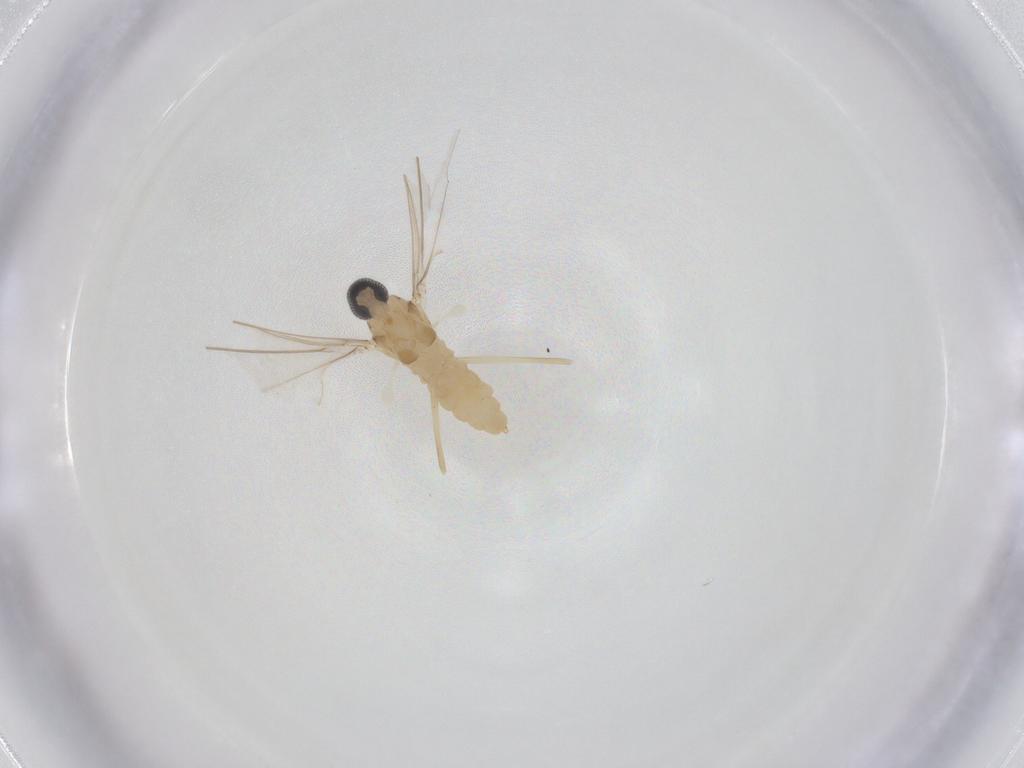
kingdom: Animalia
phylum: Arthropoda
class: Insecta
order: Diptera
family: Cecidomyiidae
